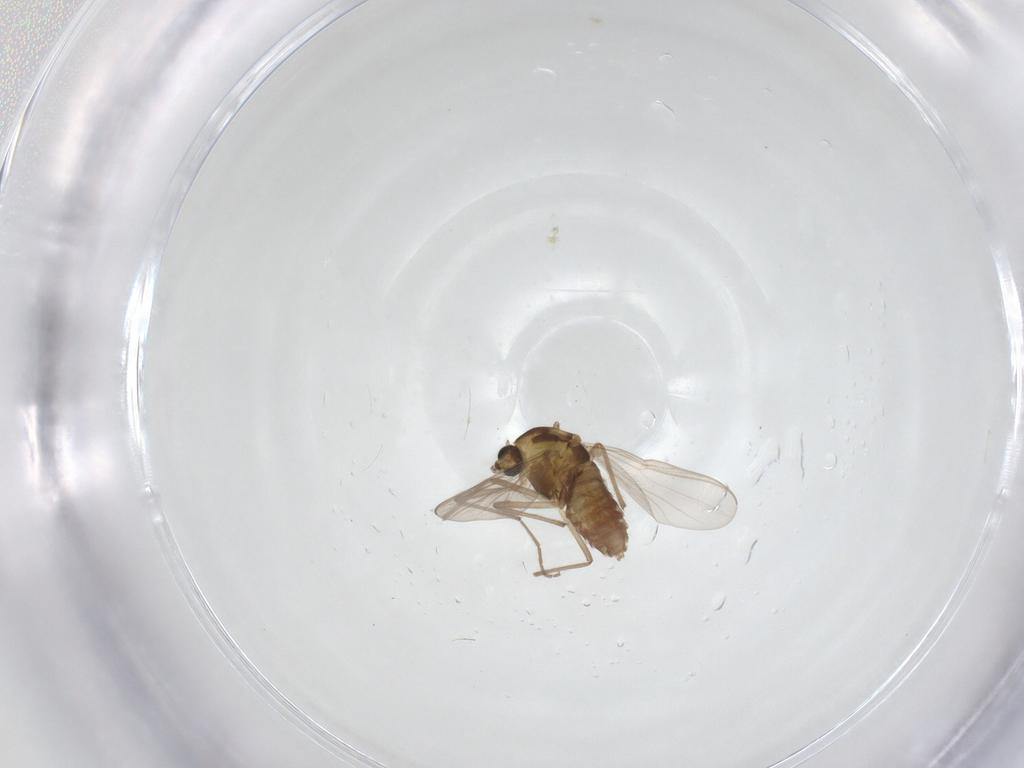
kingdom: Animalia
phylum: Arthropoda
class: Insecta
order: Diptera
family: Chironomidae
